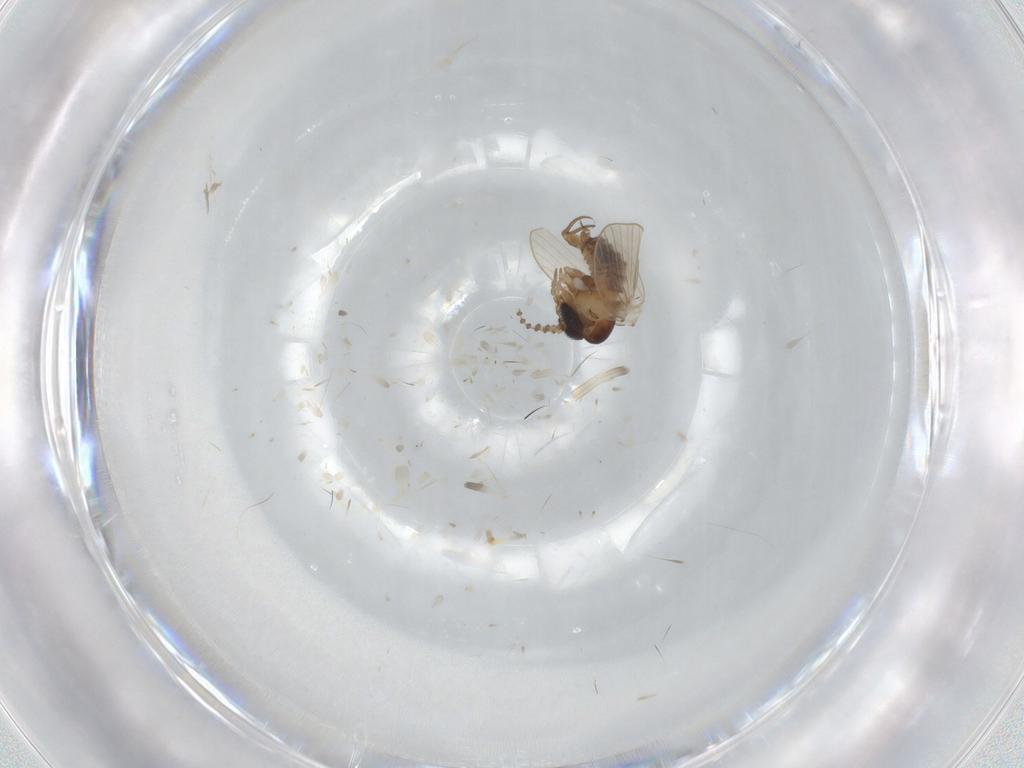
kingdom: Animalia
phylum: Arthropoda
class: Insecta
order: Diptera
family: Psychodidae
